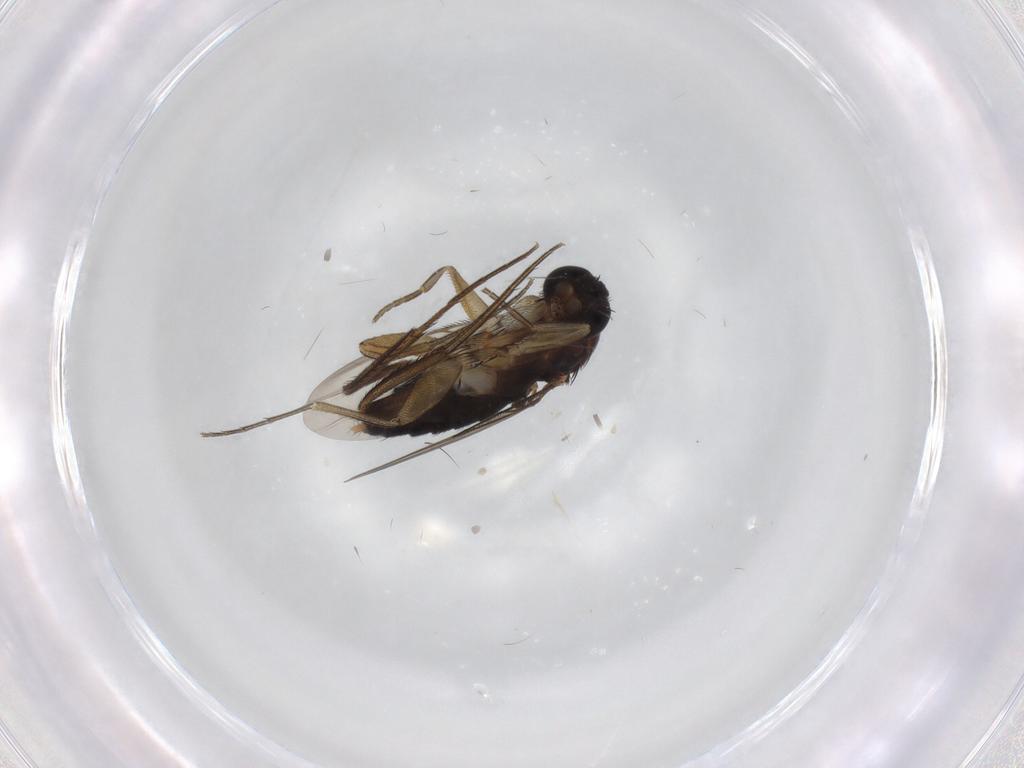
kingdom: Animalia
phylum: Arthropoda
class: Insecta
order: Diptera
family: Phoridae
